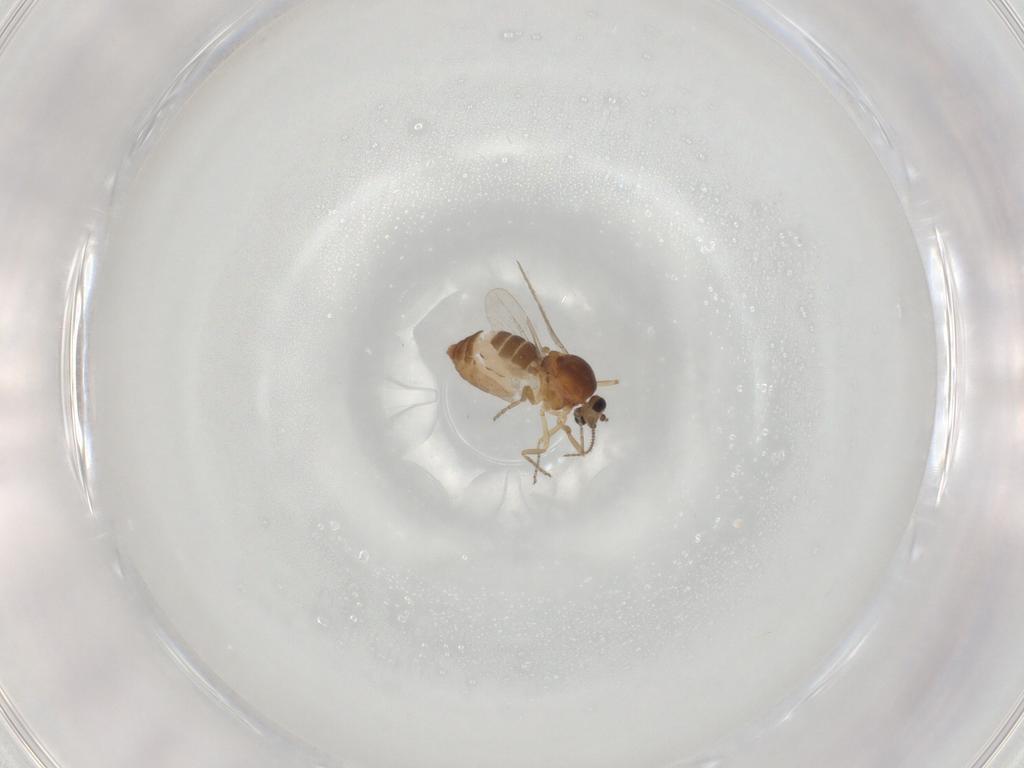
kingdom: Animalia
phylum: Arthropoda
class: Insecta
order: Diptera
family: Ceratopogonidae
